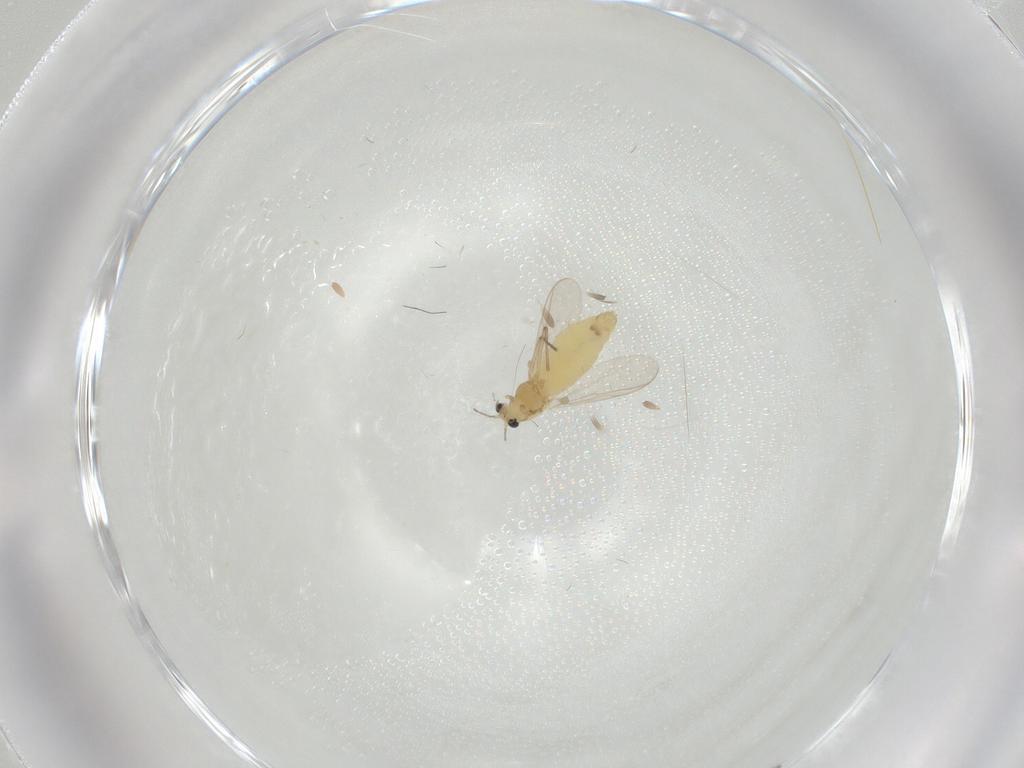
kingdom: Animalia
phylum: Arthropoda
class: Insecta
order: Diptera
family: Chironomidae
